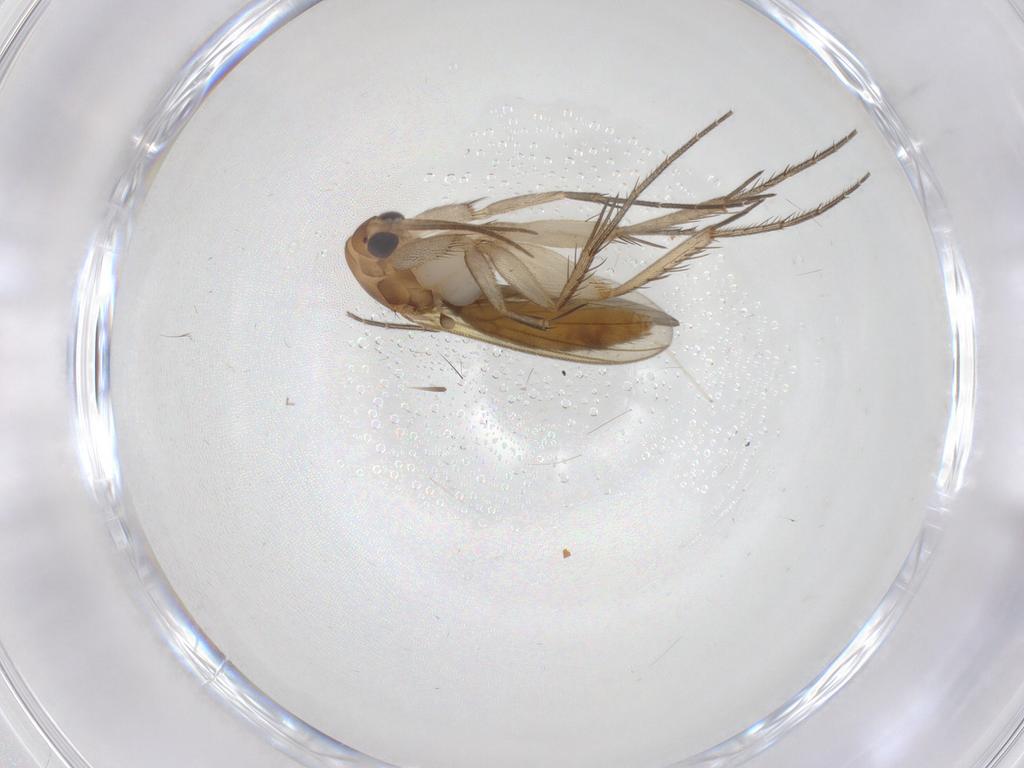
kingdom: Animalia
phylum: Arthropoda
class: Insecta
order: Diptera
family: Mycetophilidae
